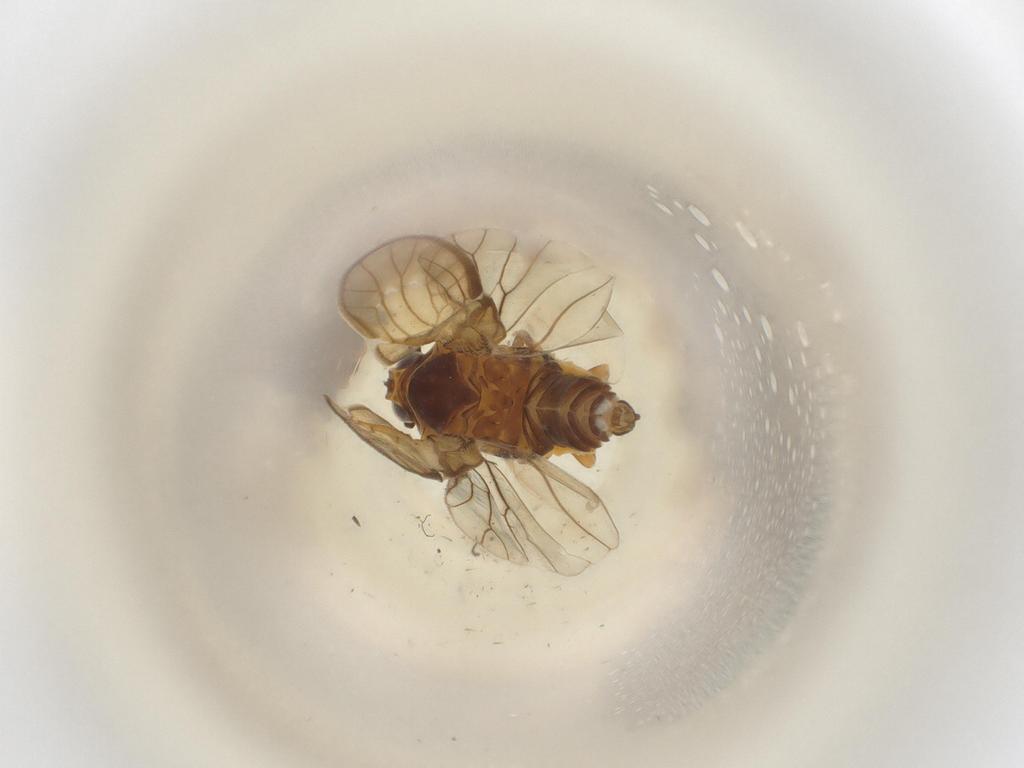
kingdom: Animalia
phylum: Arthropoda
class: Insecta
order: Hemiptera
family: Meenoplidae
